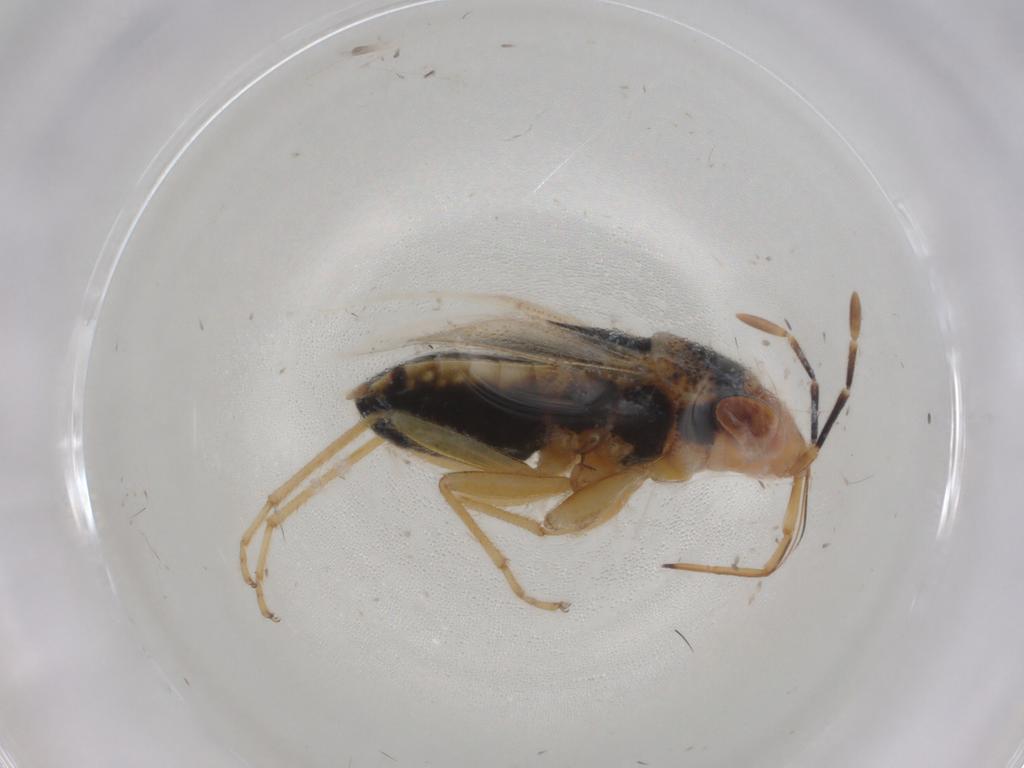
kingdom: Animalia
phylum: Arthropoda
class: Insecta
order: Hemiptera
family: Geocoridae
